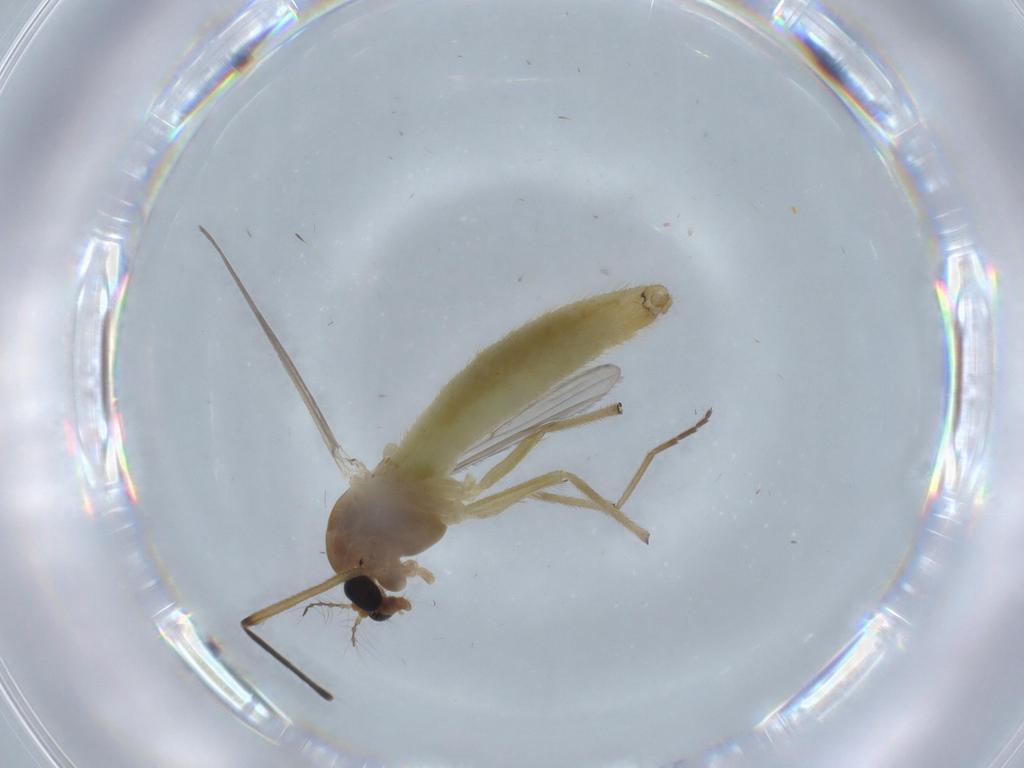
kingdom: Animalia
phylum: Arthropoda
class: Insecta
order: Diptera
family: Chironomidae
